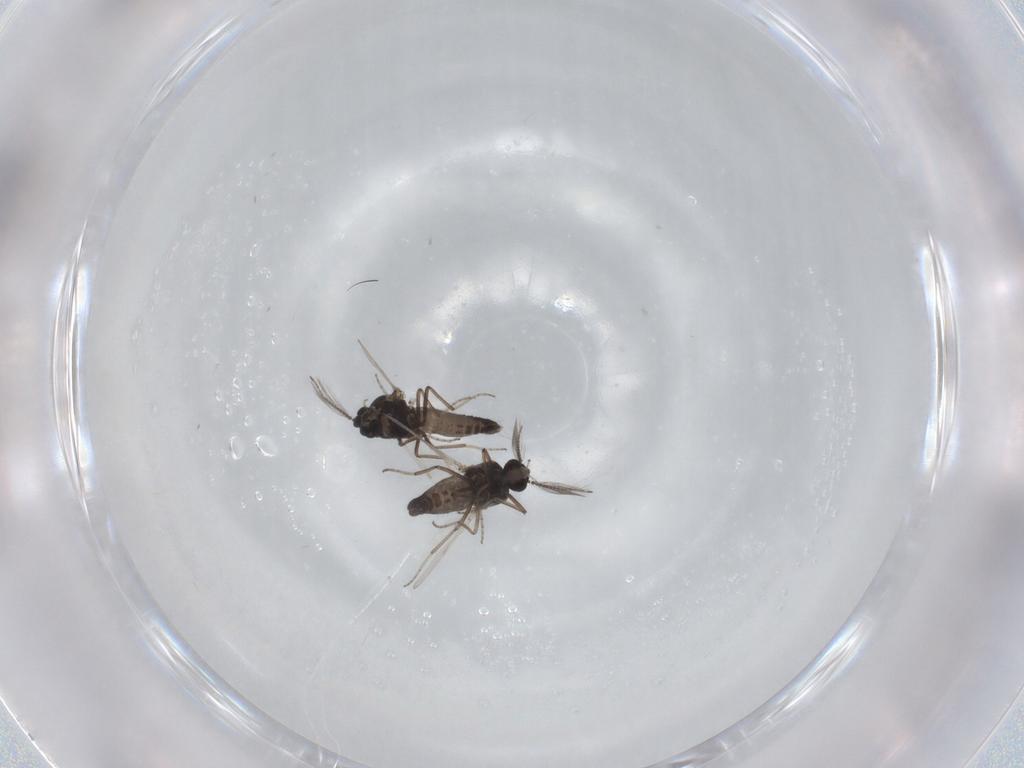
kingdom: Animalia
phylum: Arthropoda
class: Insecta
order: Diptera
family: Ceratopogonidae
